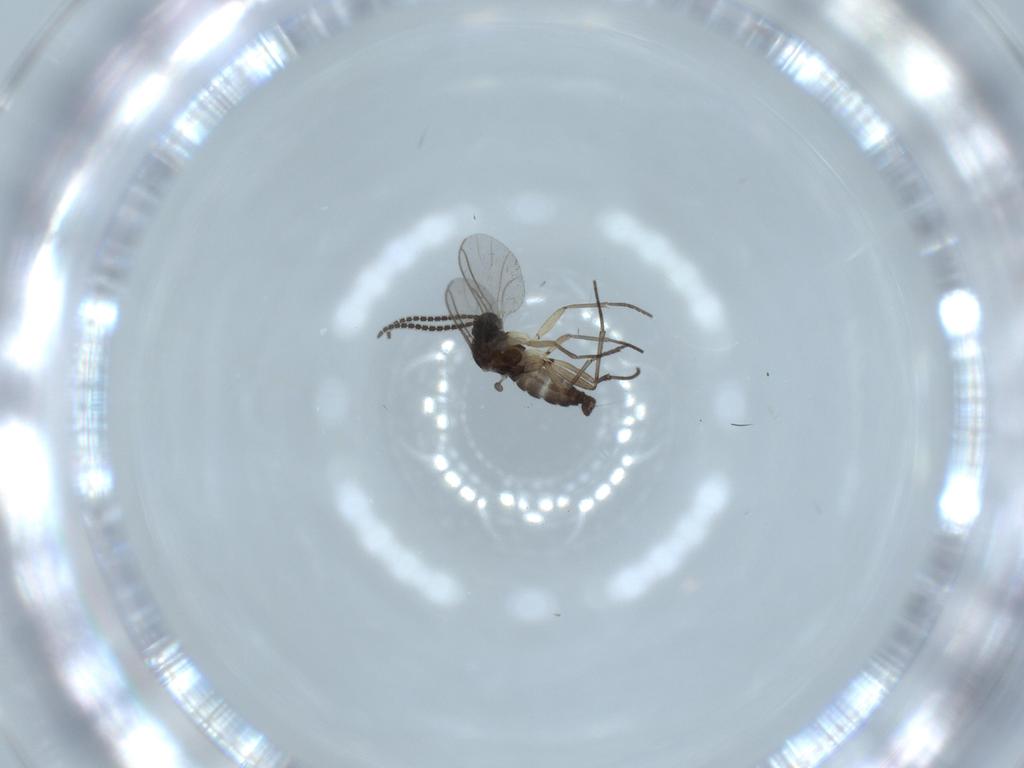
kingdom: Animalia
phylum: Arthropoda
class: Insecta
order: Diptera
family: Sciaridae
